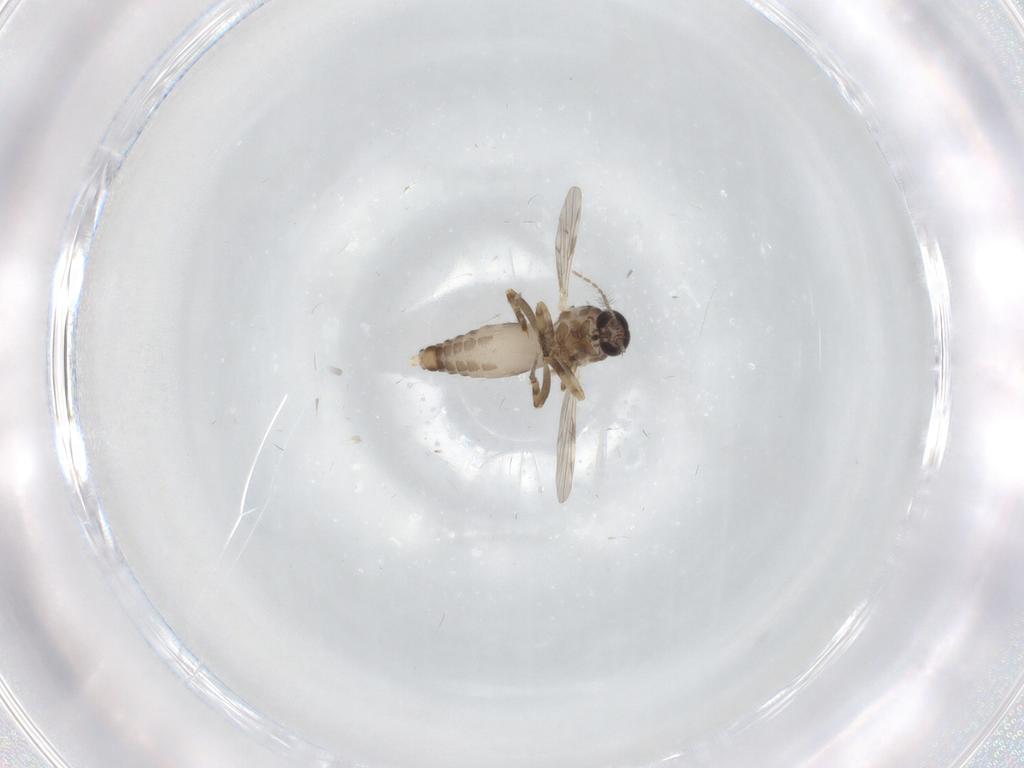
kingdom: Animalia
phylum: Arthropoda
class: Insecta
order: Diptera
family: Ceratopogonidae
